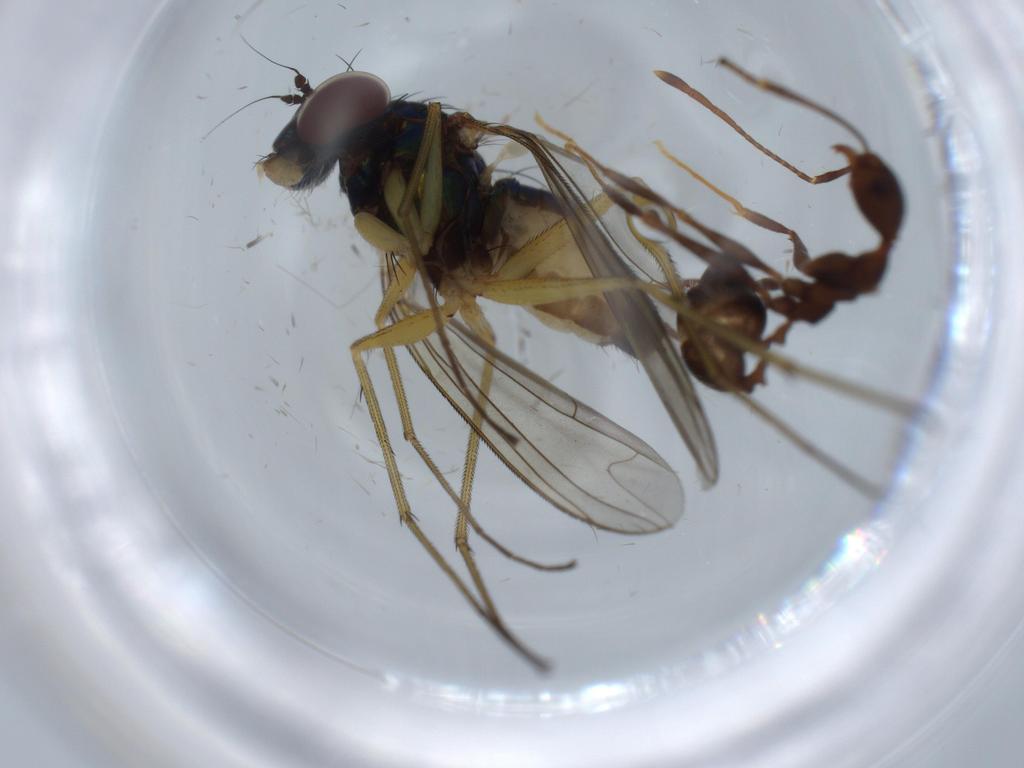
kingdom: Animalia
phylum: Arthropoda
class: Insecta
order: Diptera
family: Dolichopodidae
